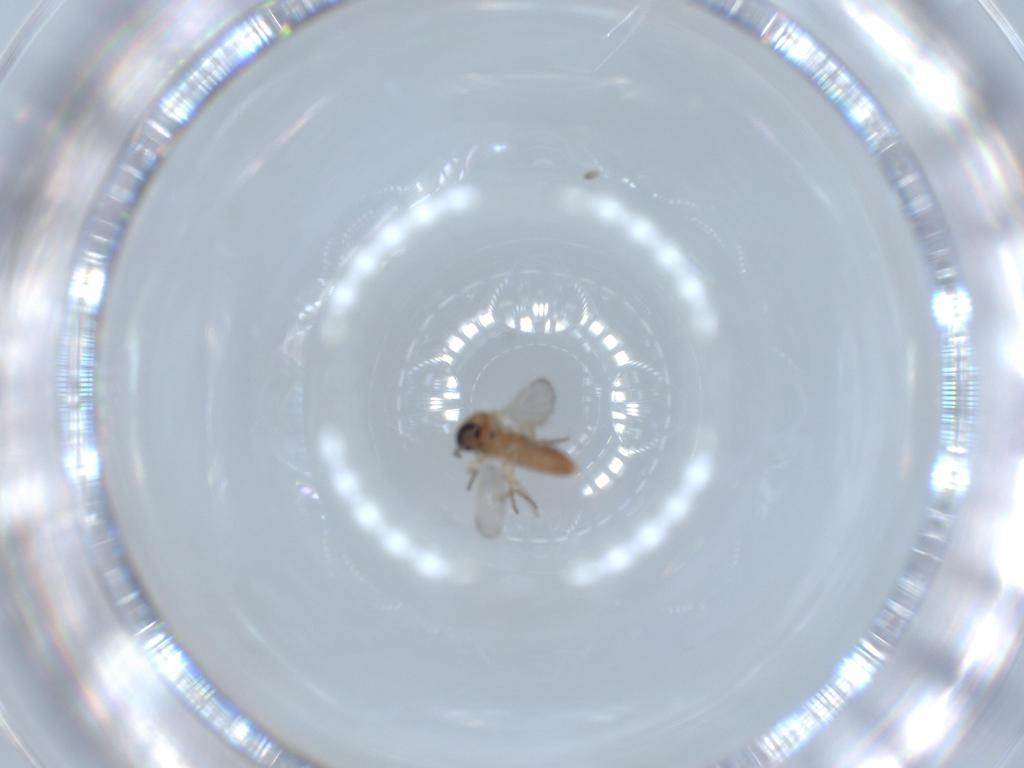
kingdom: Animalia
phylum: Arthropoda
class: Insecta
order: Diptera
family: Ceratopogonidae
